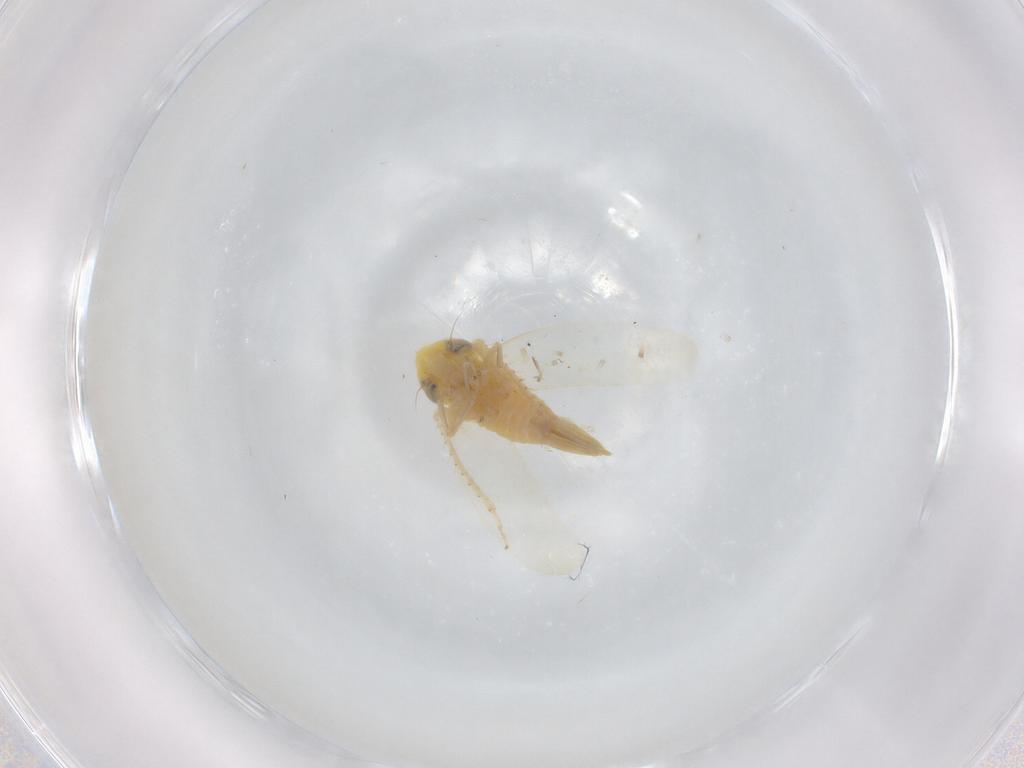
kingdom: Animalia
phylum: Arthropoda
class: Insecta
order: Hemiptera
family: Cicadellidae
